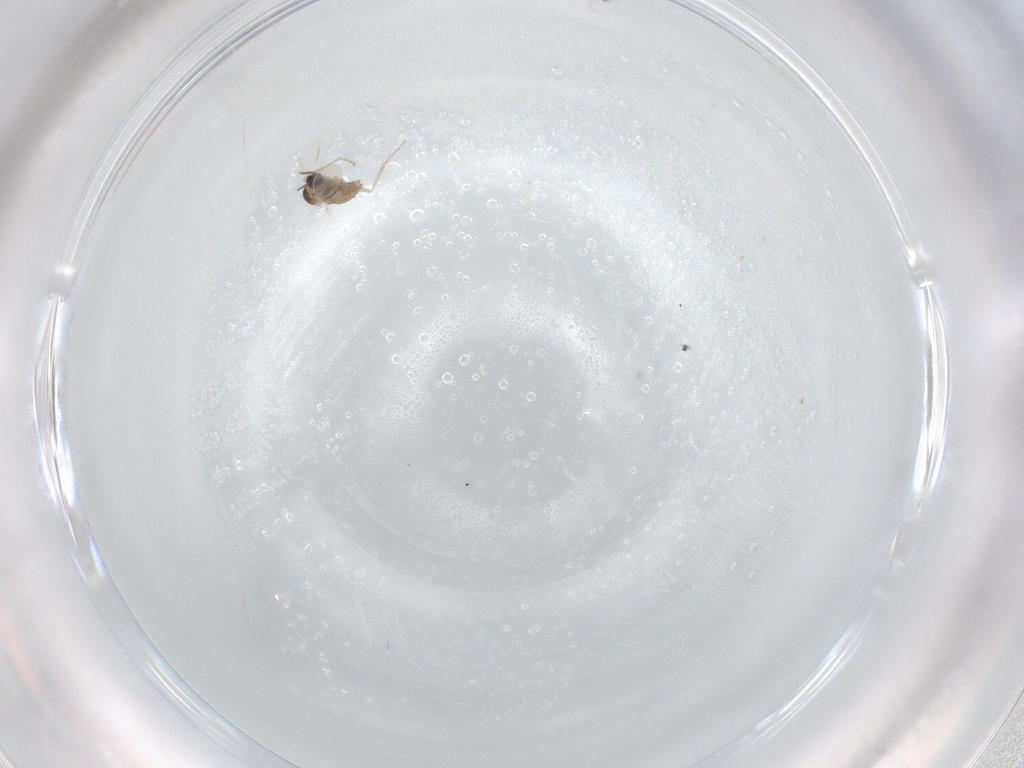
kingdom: Animalia
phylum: Arthropoda
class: Insecta
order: Diptera
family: Cecidomyiidae
